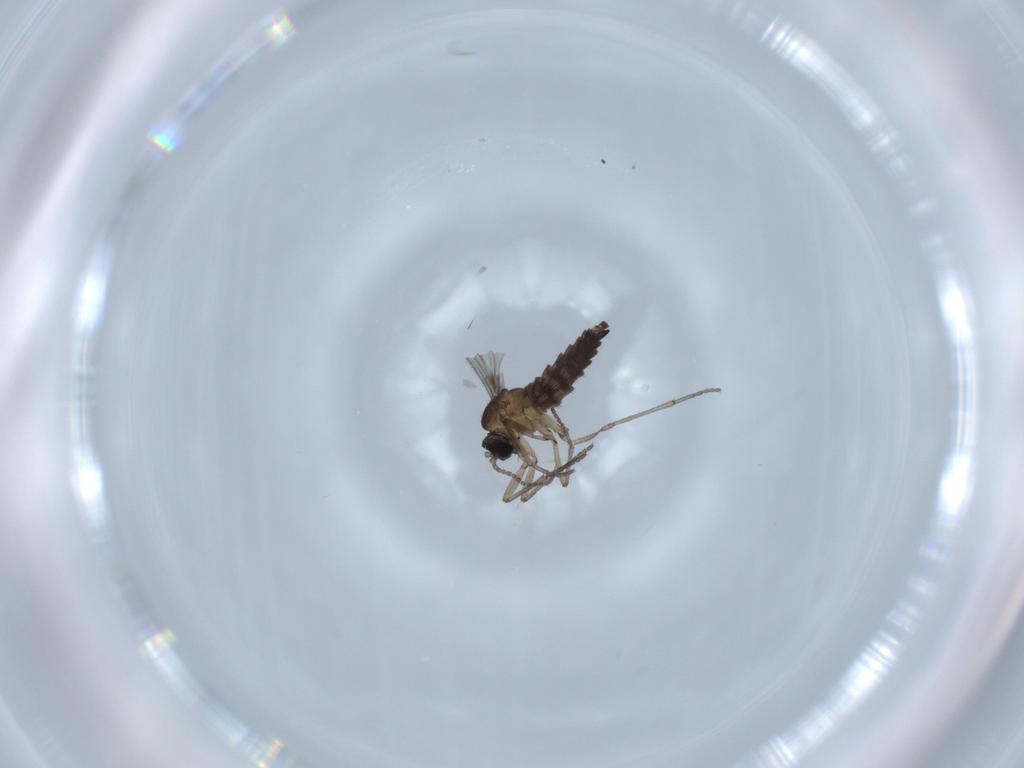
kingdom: Animalia
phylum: Arthropoda
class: Insecta
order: Diptera
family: Sciaridae
